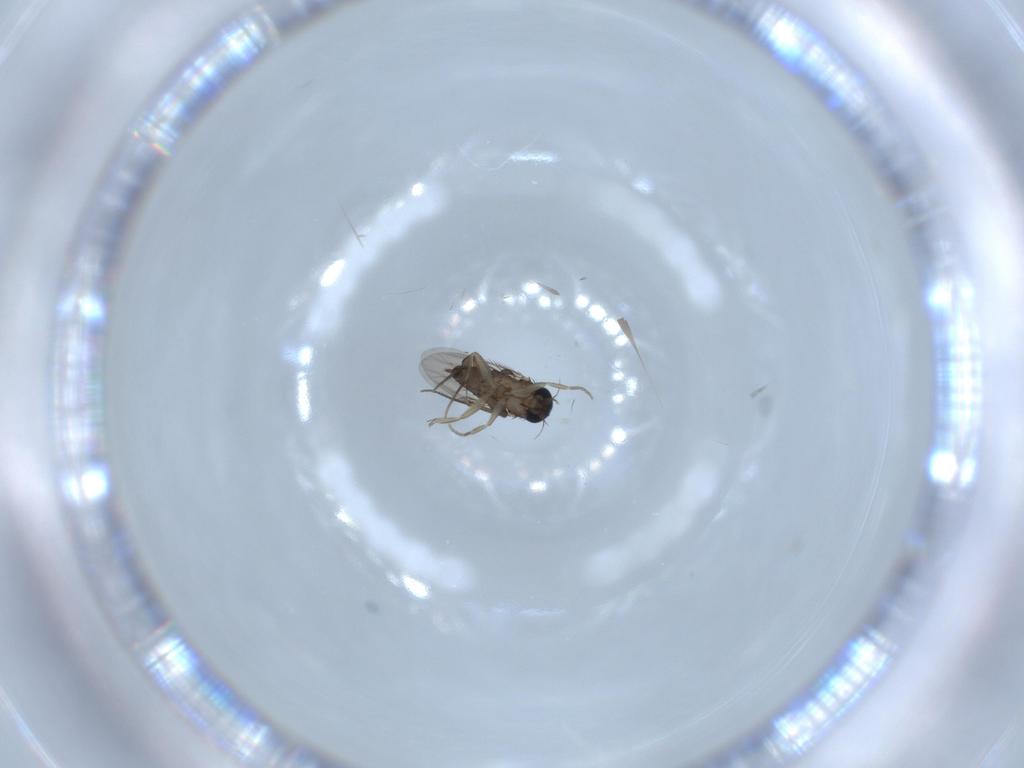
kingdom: Animalia
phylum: Arthropoda
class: Insecta
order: Diptera
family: Phoridae
